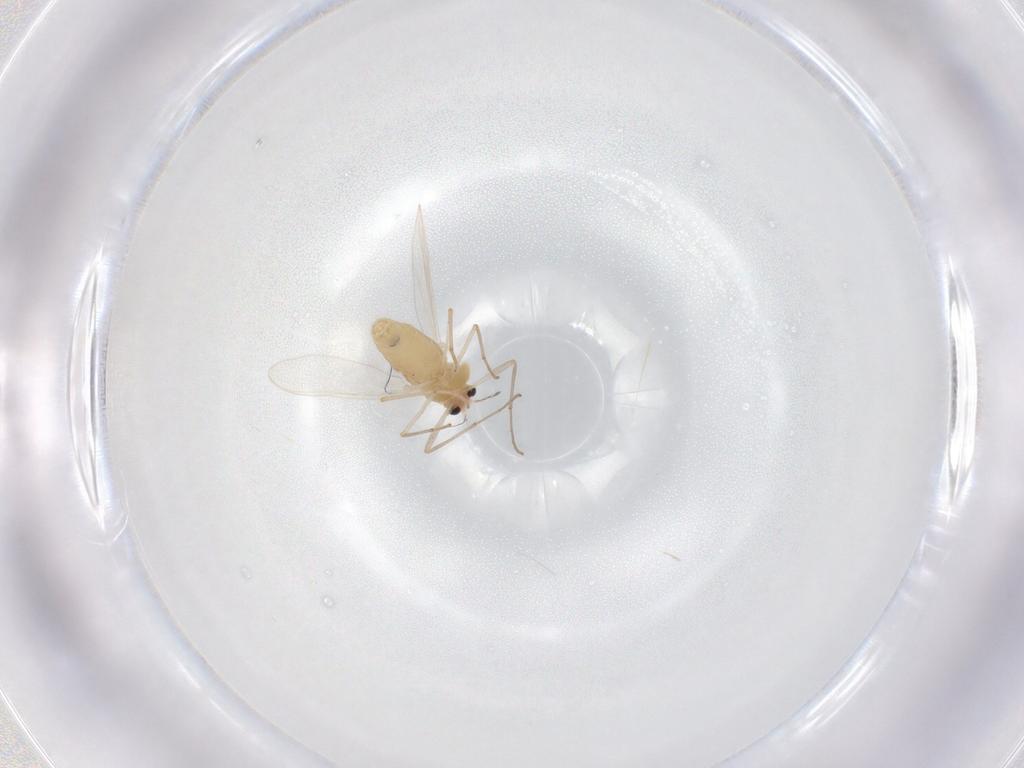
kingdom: Animalia
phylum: Arthropoda
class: Insecta
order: Diptera
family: Chironomidae
